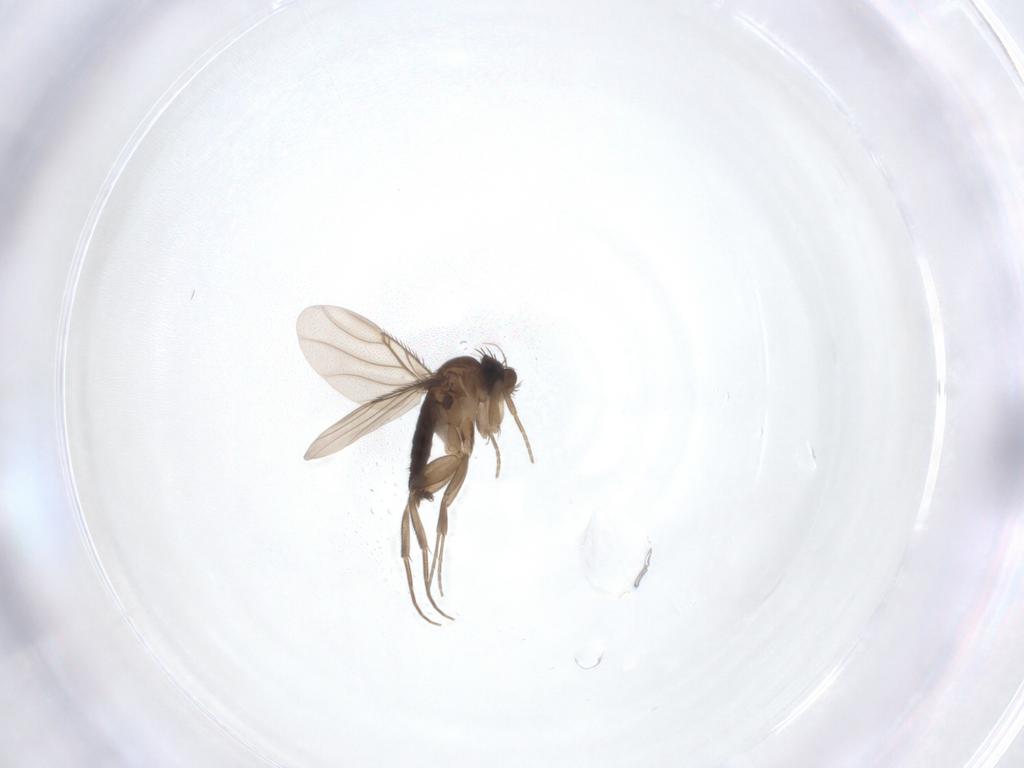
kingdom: Animalia
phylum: Arthropoda
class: Insecta
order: Diptera
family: Phoridae
